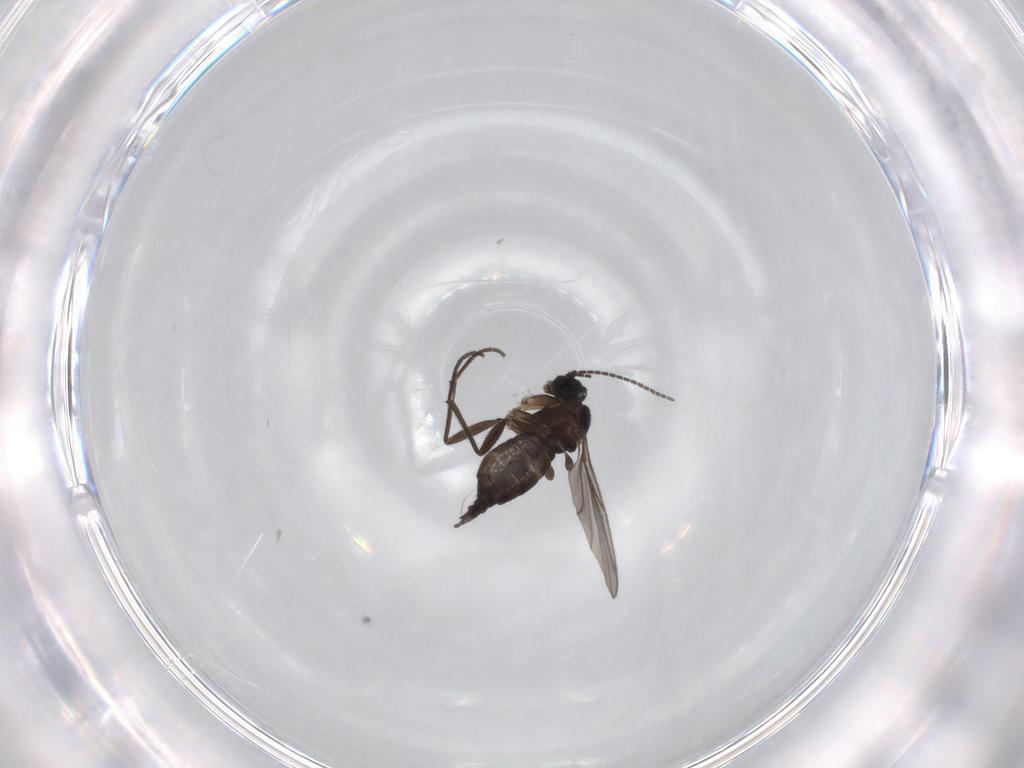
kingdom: Animalia
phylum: Arthropoda
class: Insecta
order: Diptera
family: Sciaridae
